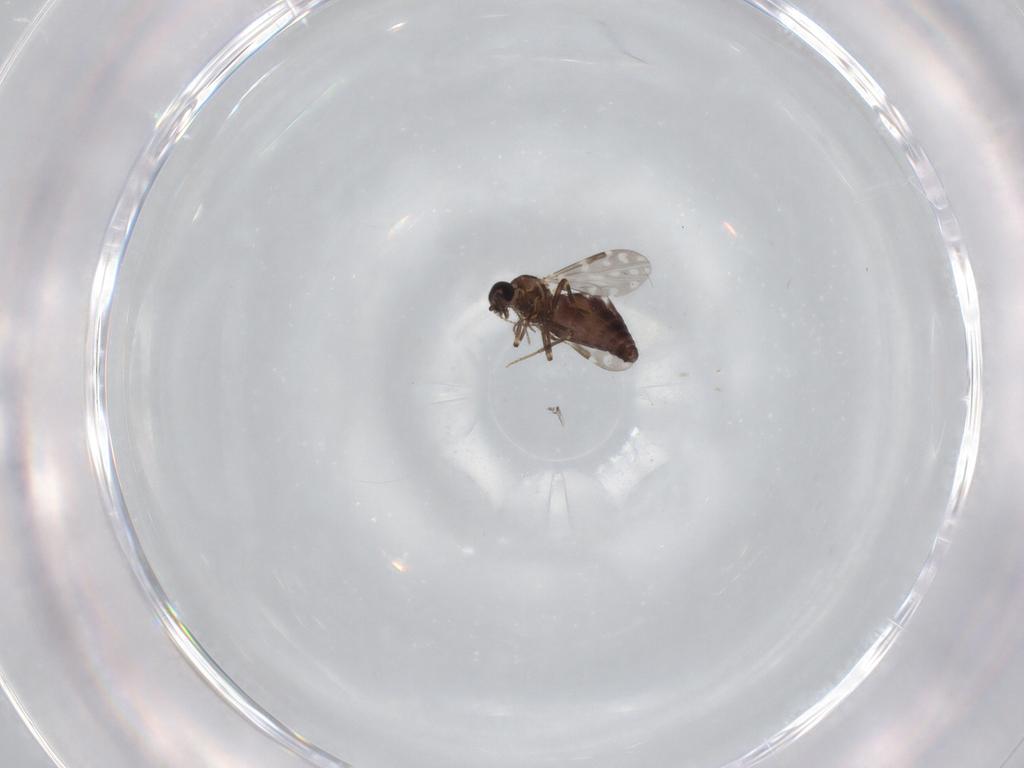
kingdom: Animalia
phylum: Arthropoda
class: Insecta
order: Diptera
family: Ceratopogonidae
